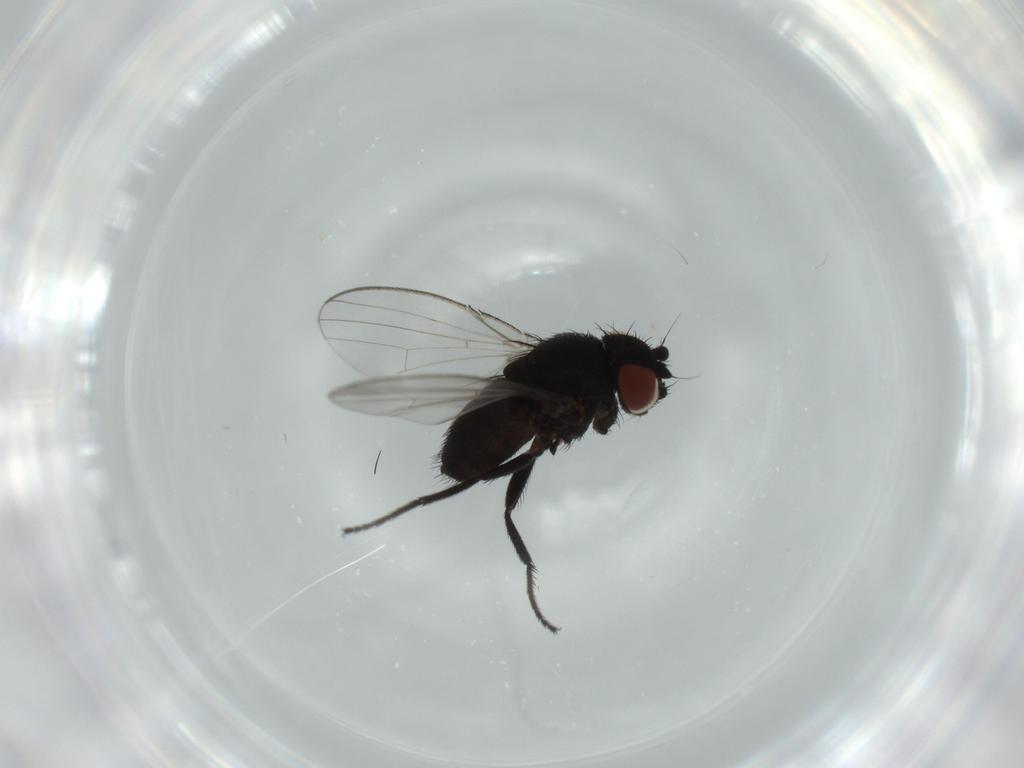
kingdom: Animalia
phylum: Arthropoda
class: Insecta
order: Diptera
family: Milichiidae
